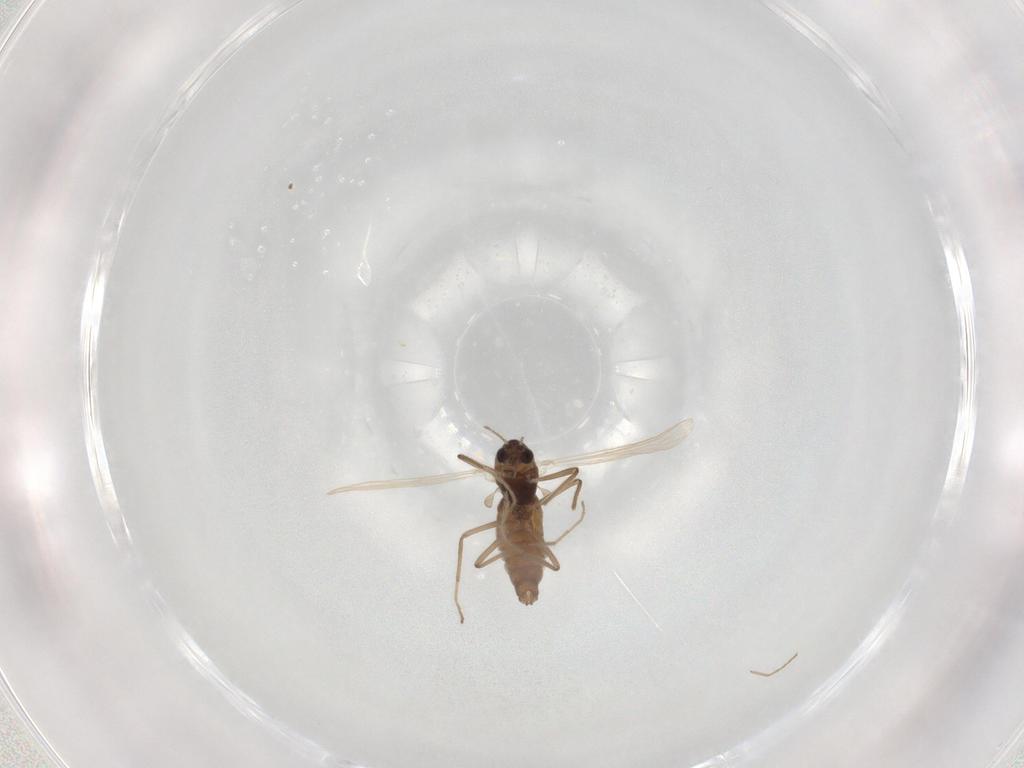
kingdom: Animalia
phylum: Arthropoda
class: Insecta
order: Diptera
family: Chironomidae
